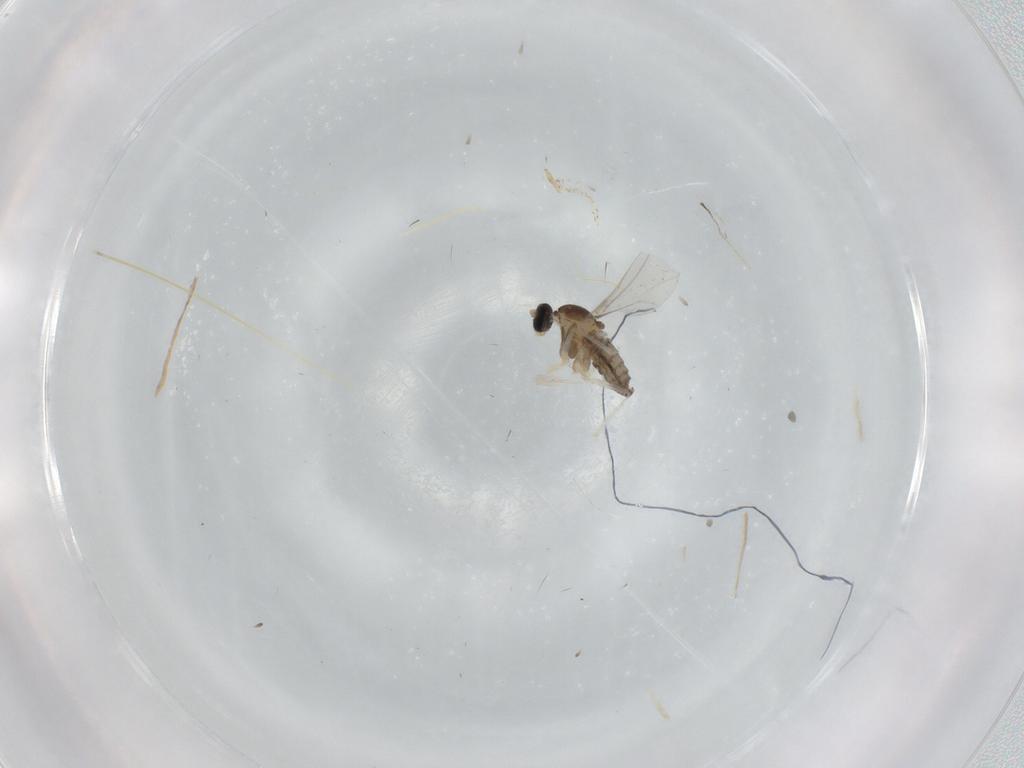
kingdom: Animalia
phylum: Arthropoda
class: Insecta
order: Diptera
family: Cecidomyiidae
